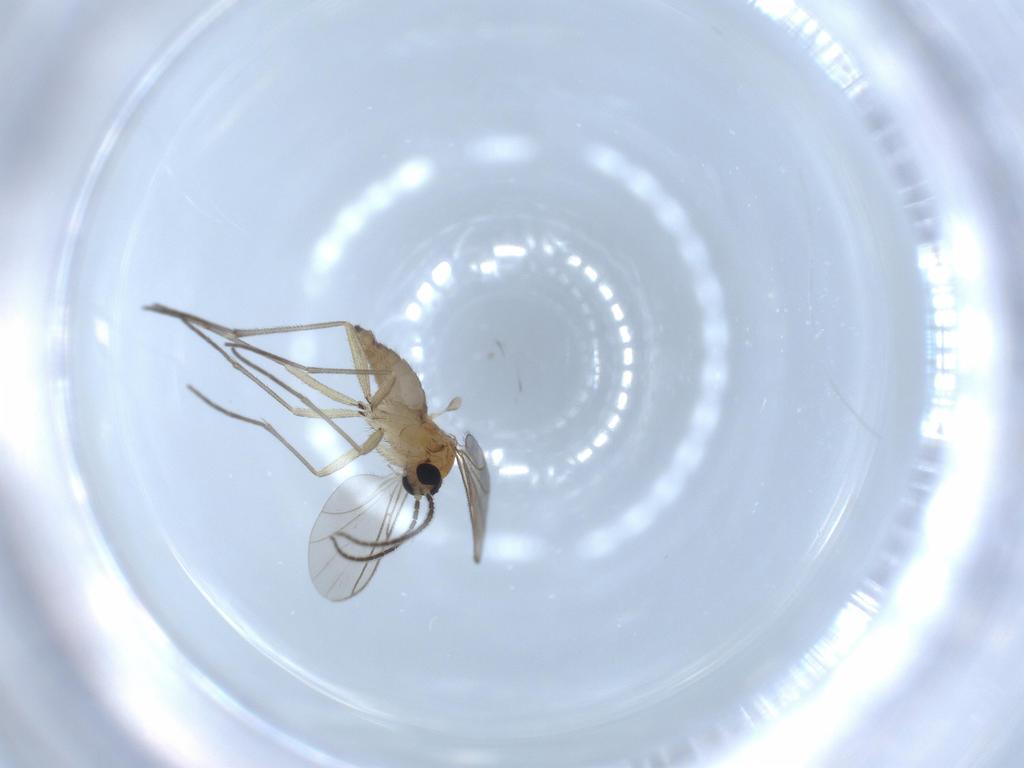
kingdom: Animalia
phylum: Arthropoda
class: Insecta
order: Diptera
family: Sciaridae
